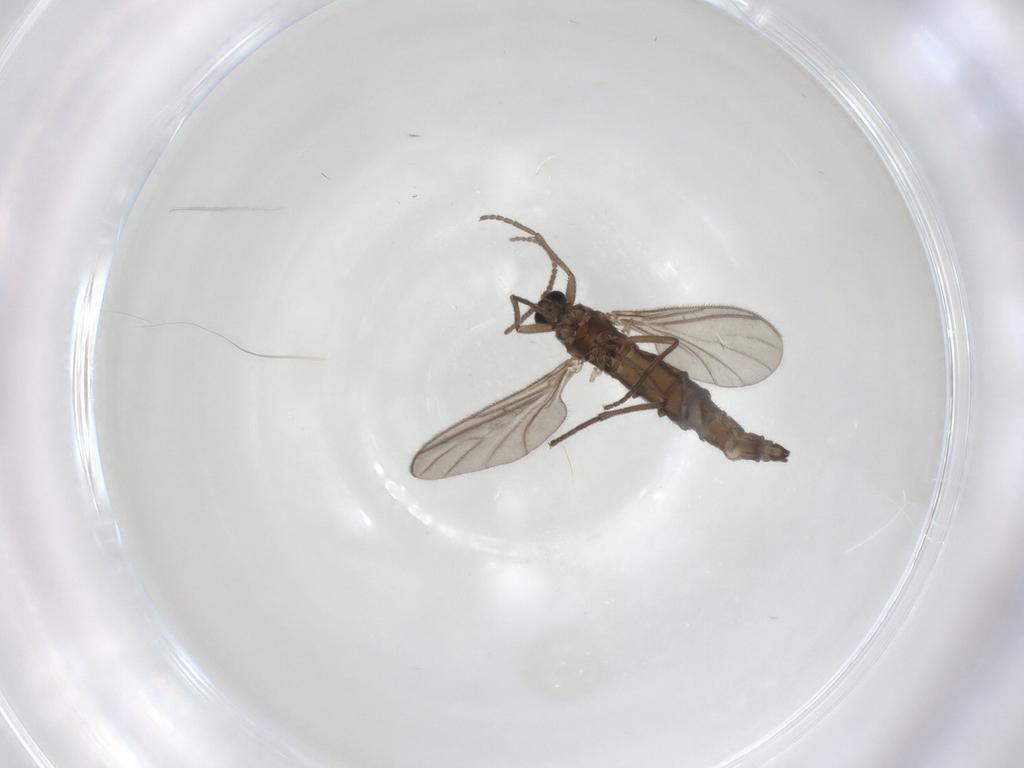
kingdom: Animalia
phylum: Arthropoda
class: Insecta
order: Diptera
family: Sciaridae
